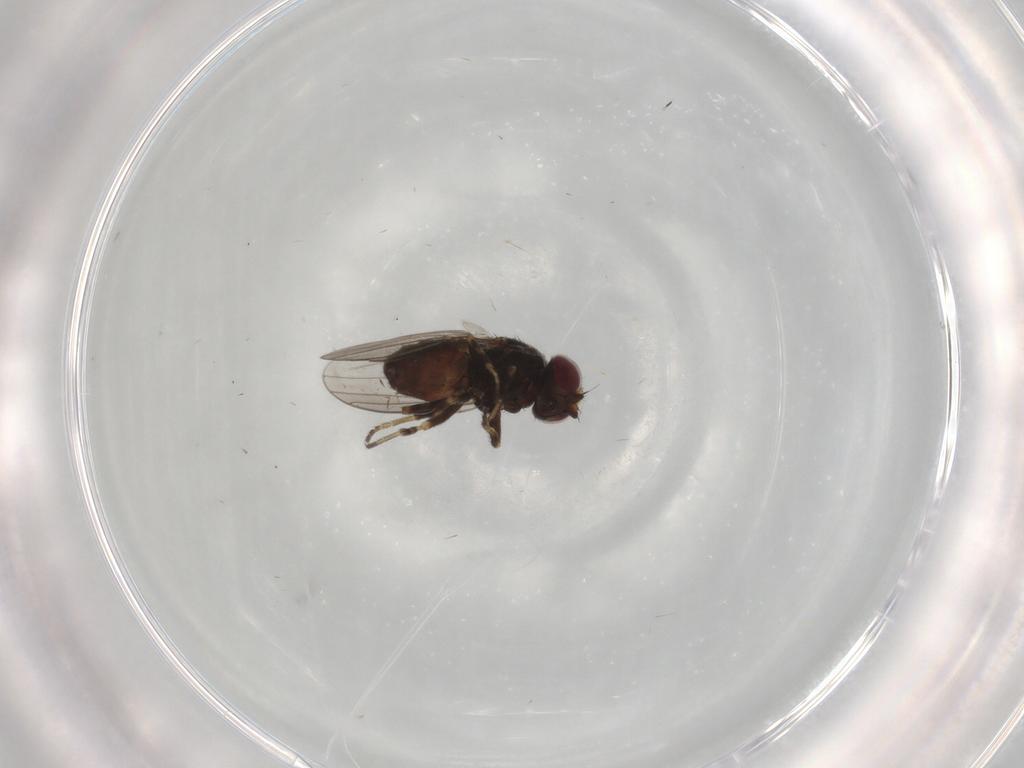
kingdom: Animalia
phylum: Arthropoda
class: Insecta
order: Diptera
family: Chloropidae
